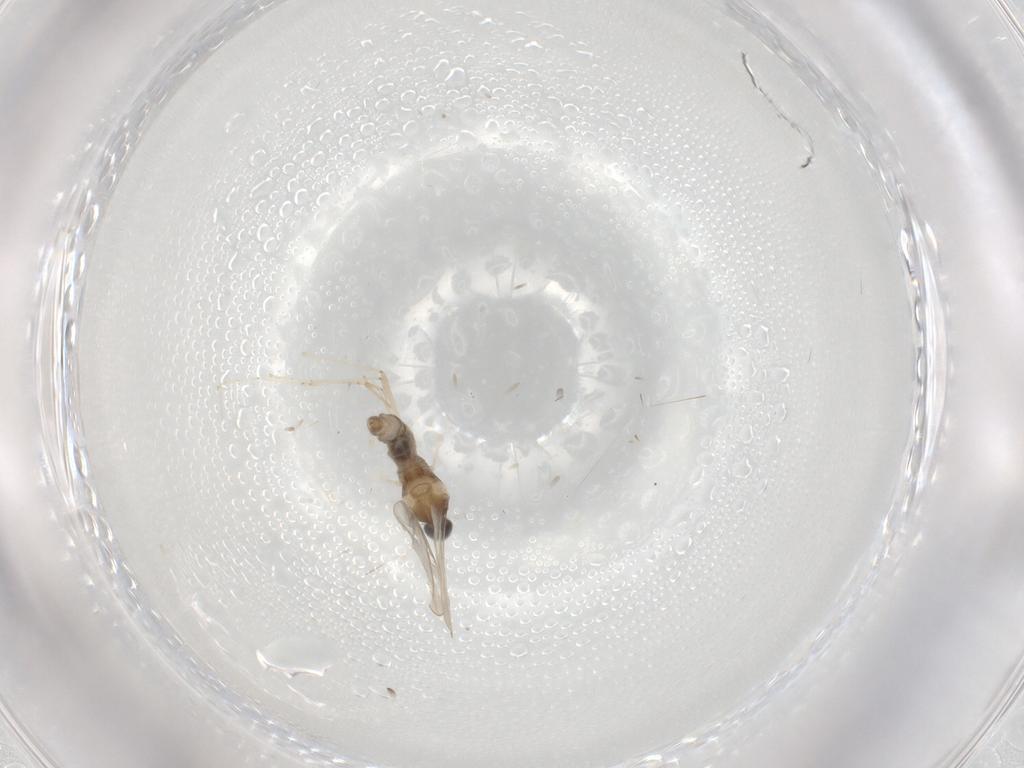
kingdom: Animalia
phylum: Arthropoda
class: Insecta
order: Diptera
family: Cecidomyiidae
